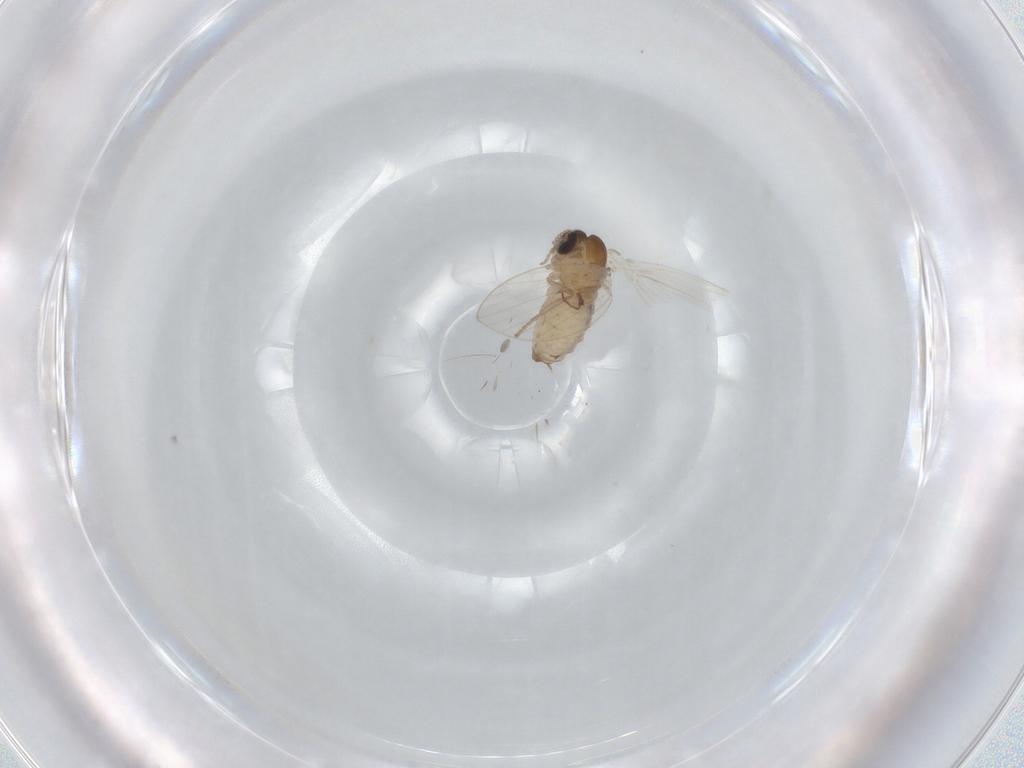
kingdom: Animalia
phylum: Arthropoda
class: Insecta
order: Diptera
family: Psychodidae
